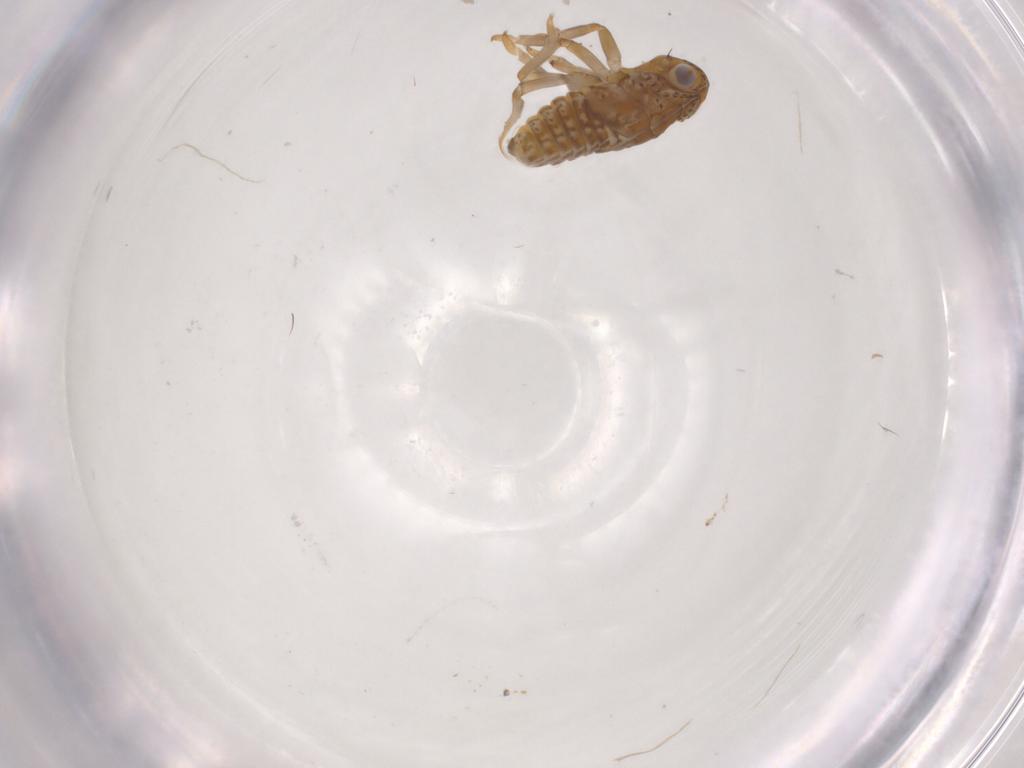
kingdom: Animalia
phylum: Arthropoda
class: Insecta
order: Hemiptera
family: Issidae
